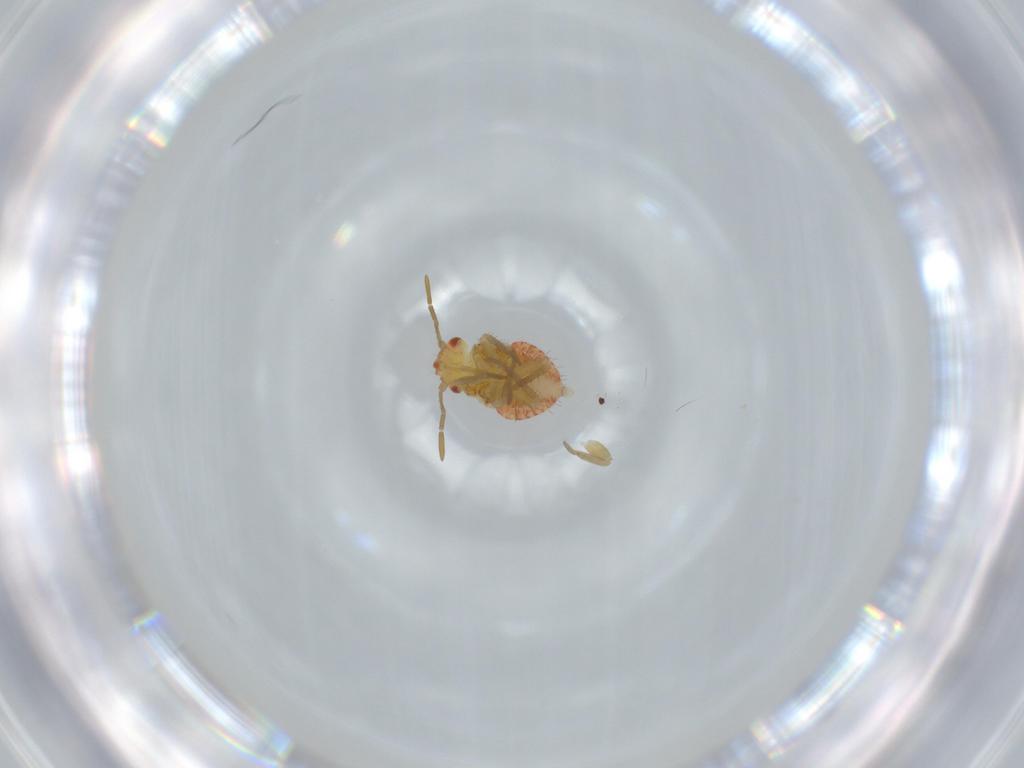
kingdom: Animalia
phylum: Arthropoda
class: Insecta
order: Hemiptera
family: Miridae
